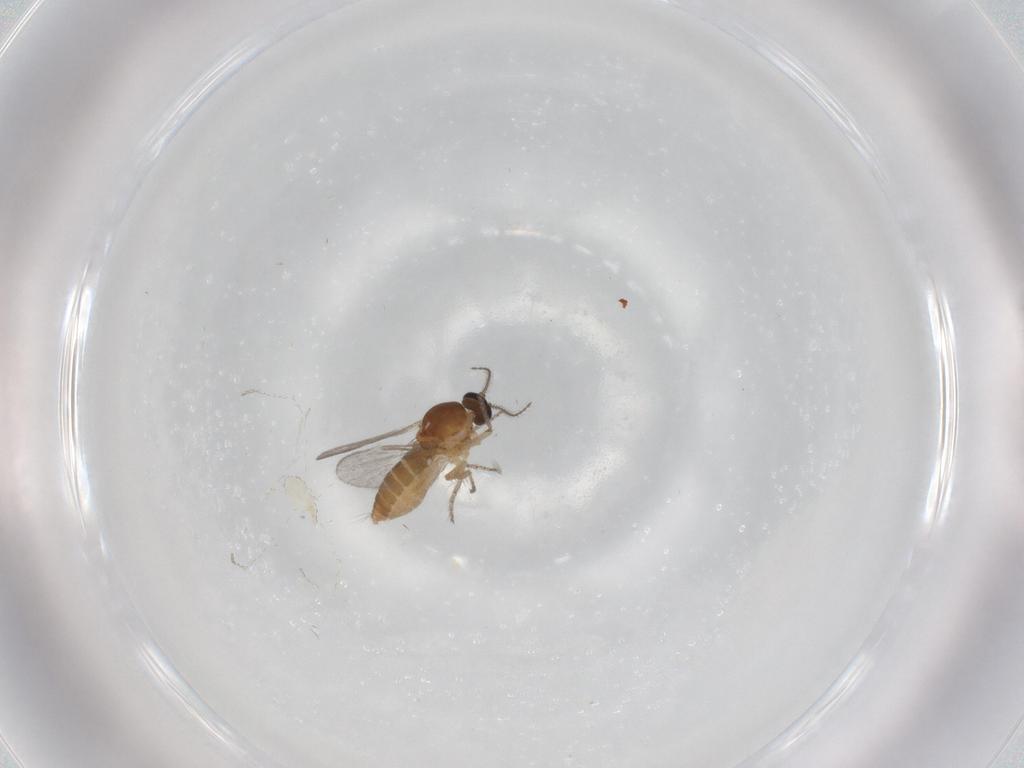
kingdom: Animalia
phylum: Arthropoda
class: Insecta
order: Diptera
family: Ceratopogonidae
